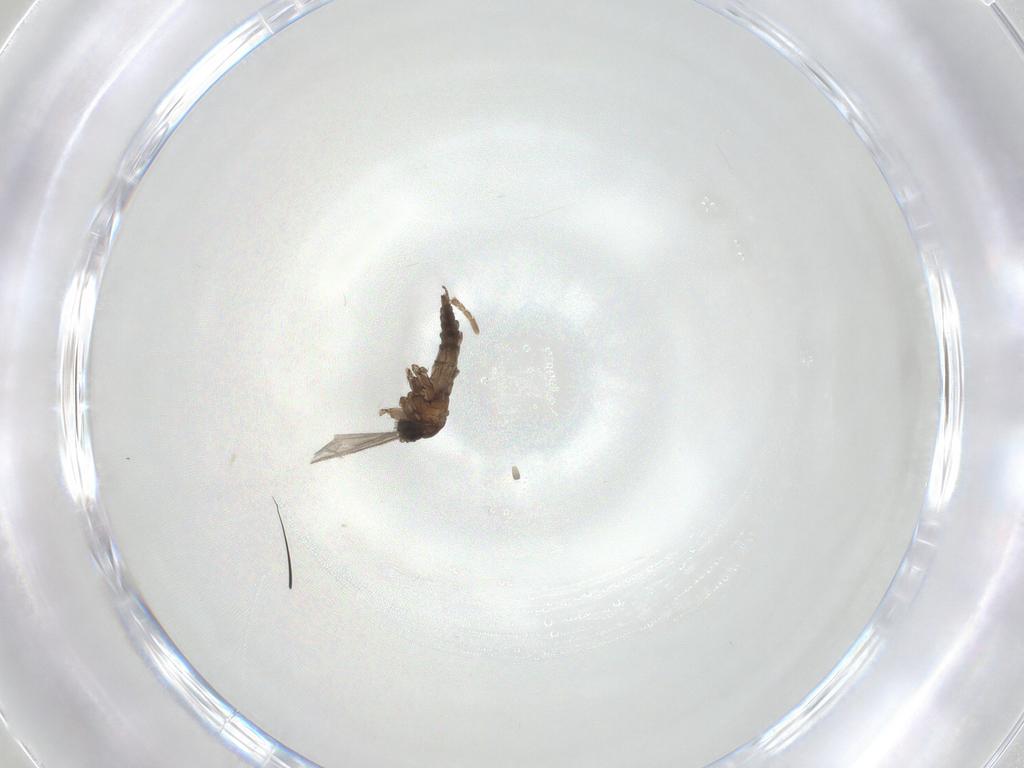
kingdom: Animalia
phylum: Arthropoda
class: Insecta
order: Diptera
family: Sciaridae
